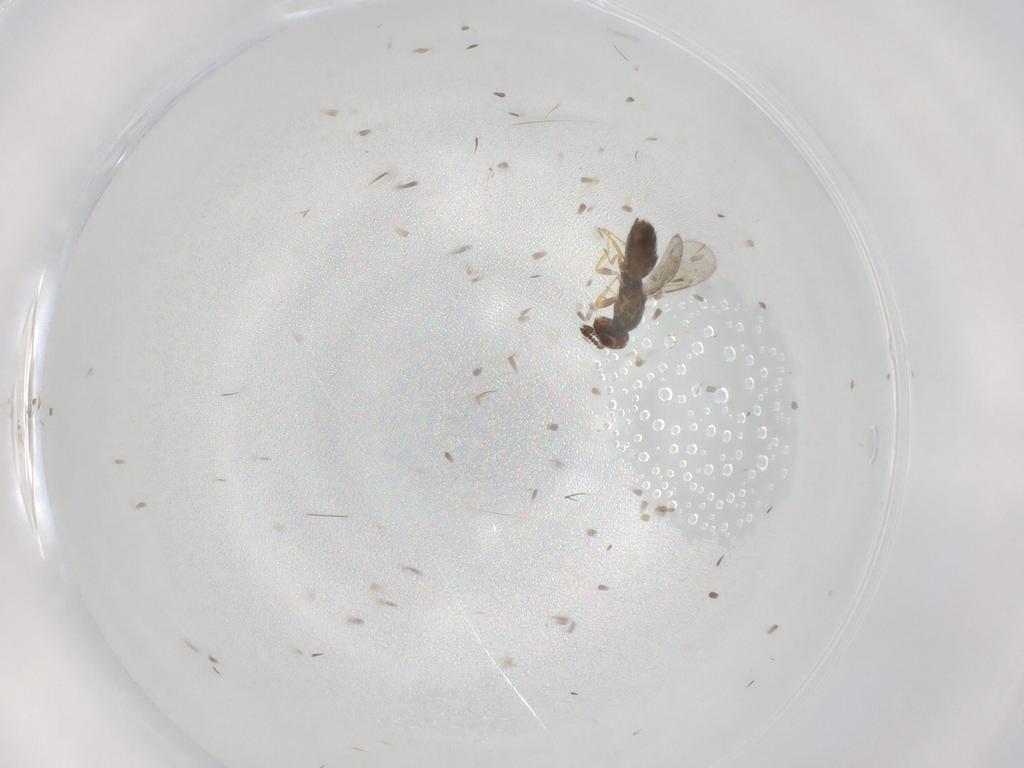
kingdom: Animalia
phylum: Arthropoda
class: Insecta
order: Hymenoptera
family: Eulophidae
